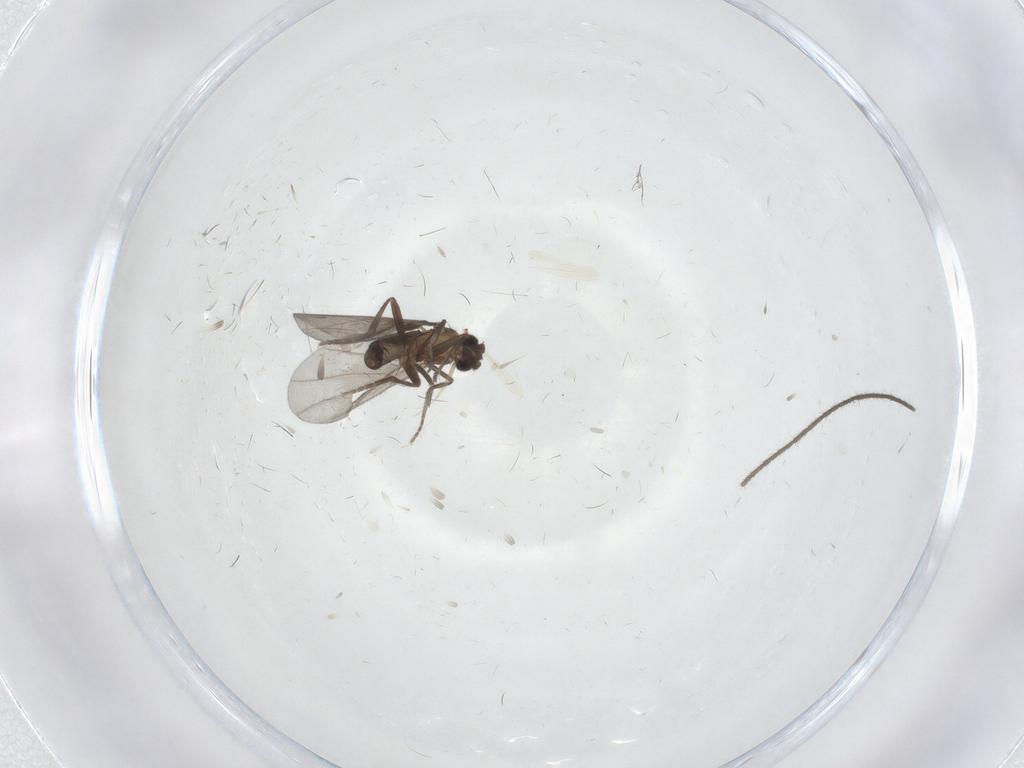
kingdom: Animalia
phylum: Arthropoda
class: Insecta
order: Diptera
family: Phoridae
